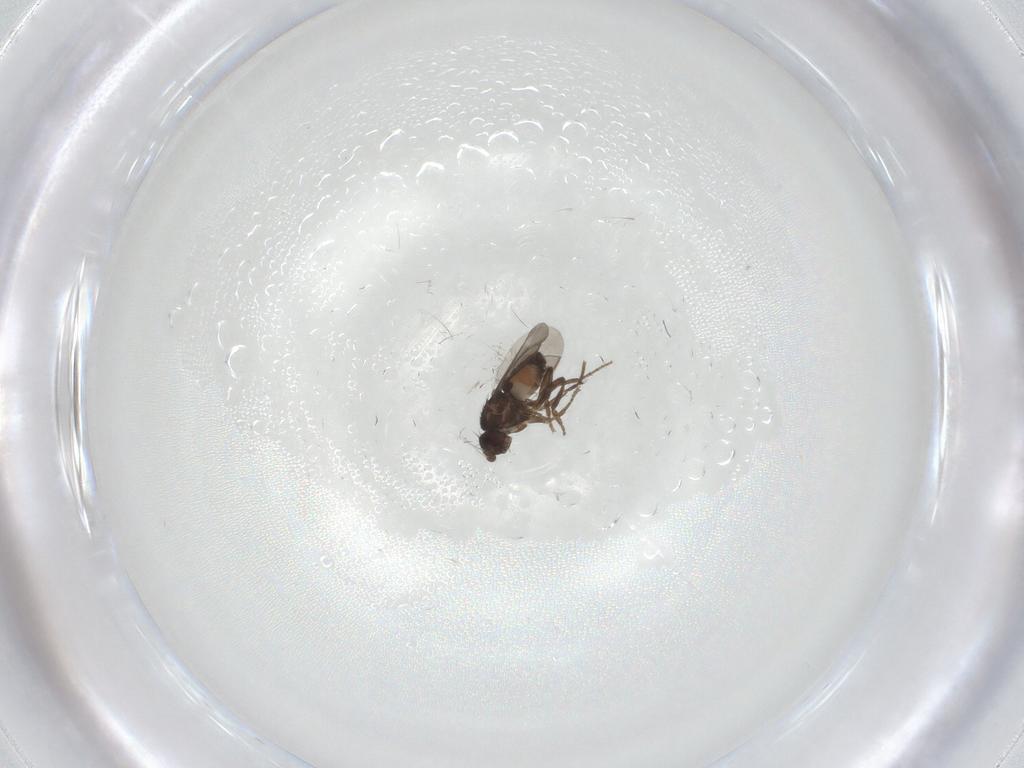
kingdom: Animalia
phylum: Arthropoda
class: Insecta
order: Diptera
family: Sphaeroceridae
